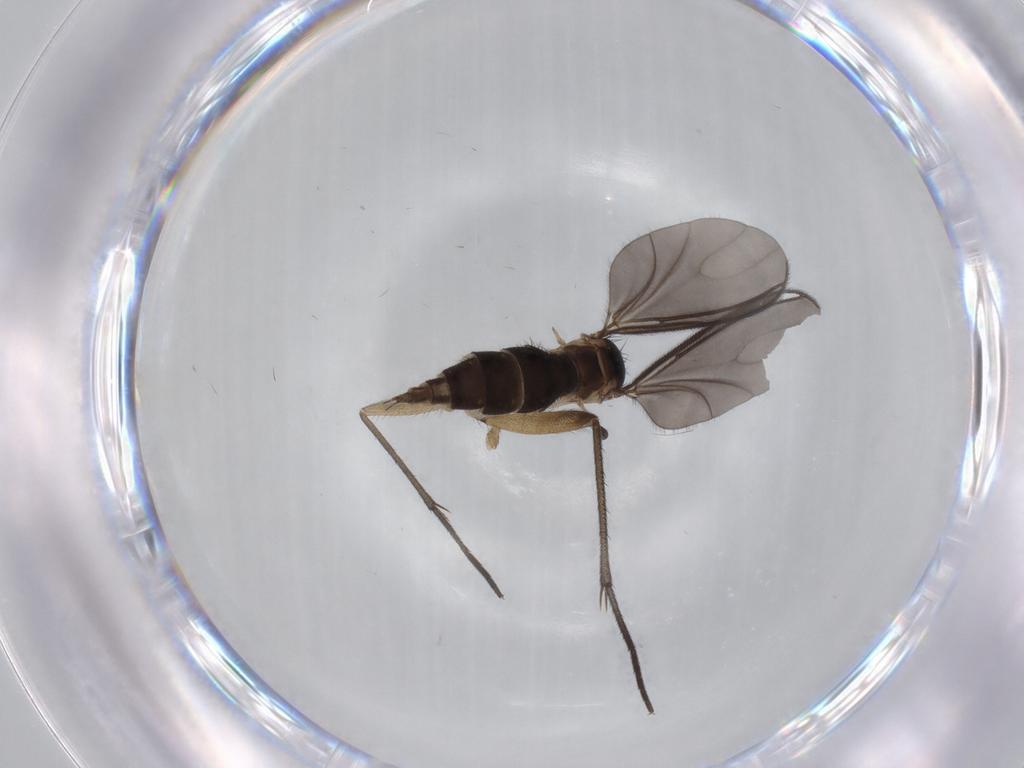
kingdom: Animalia
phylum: Arthropoda
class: Insecta
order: Diptera
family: Sciaridae
